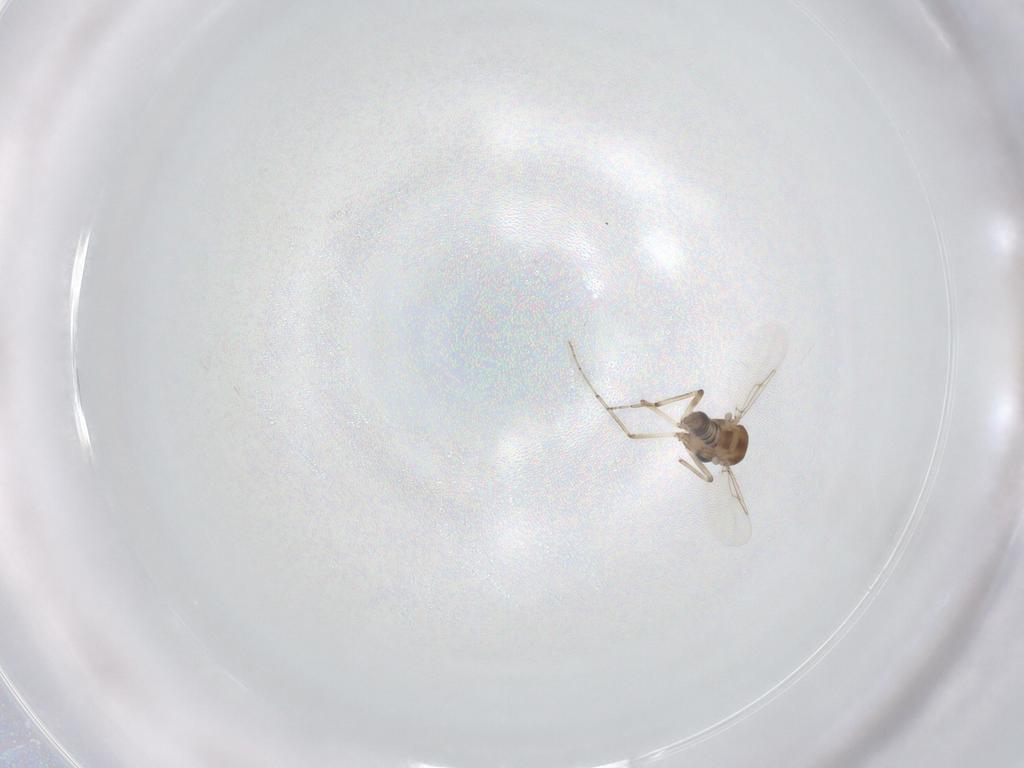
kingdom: Animalia
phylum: Arthropoda
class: Insecta
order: Diptera
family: Ceratopogonidae
